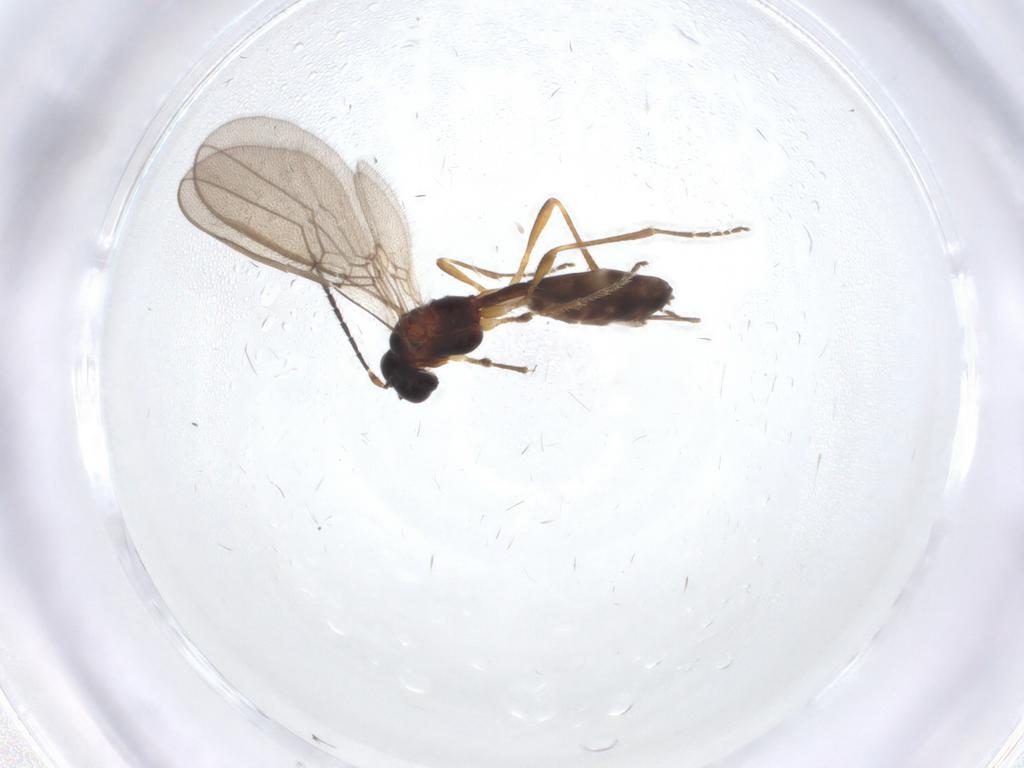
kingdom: Animalia
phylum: Arthropoda
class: Insecta
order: Hymenoptera
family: Braconidae
